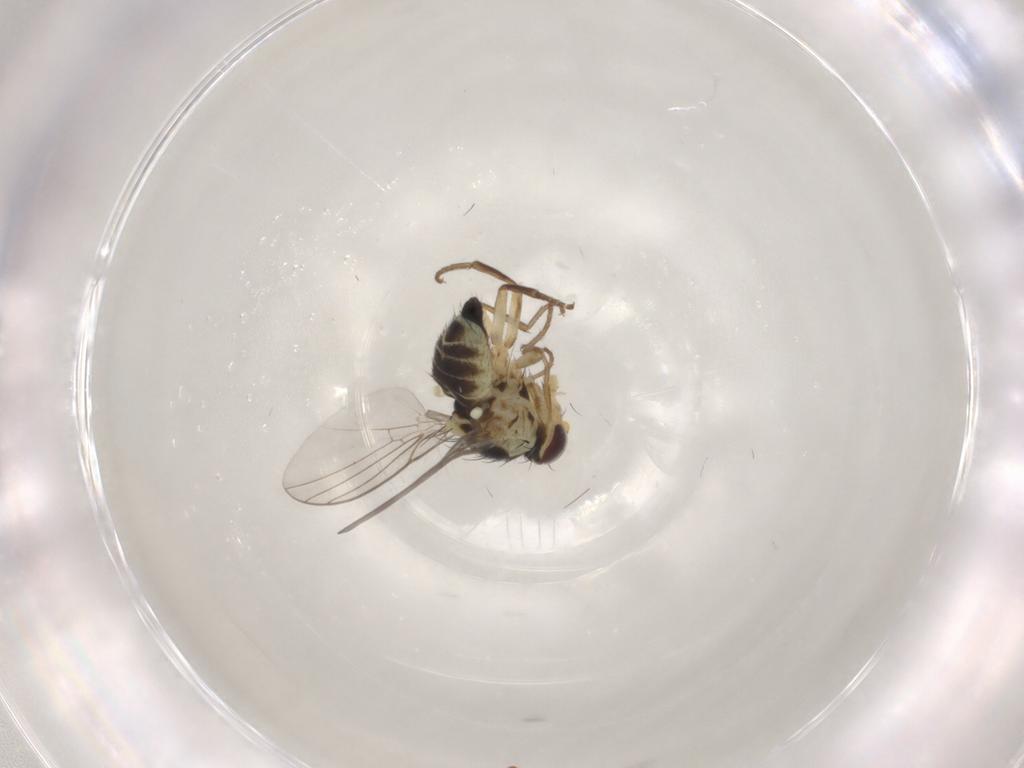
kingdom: Animalia
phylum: Arthropoda
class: Insecta
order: Diptera
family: Agromyzidae
